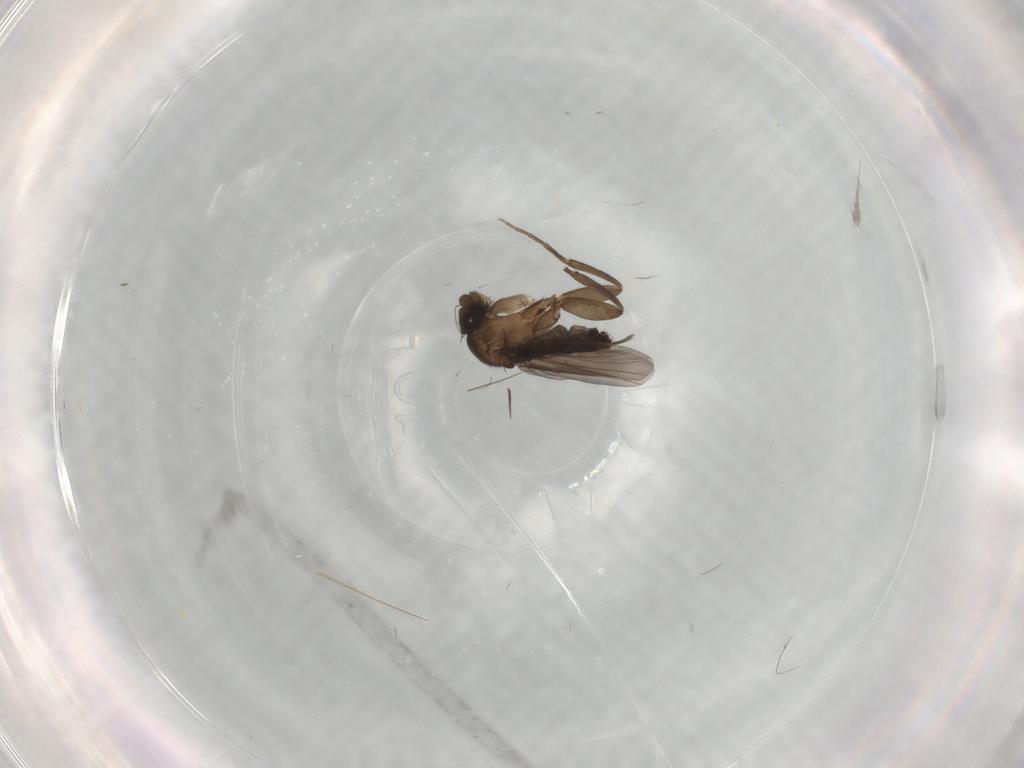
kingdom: Animalia
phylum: Arthropoda
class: Insecta
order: Diptera
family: Phoridae
